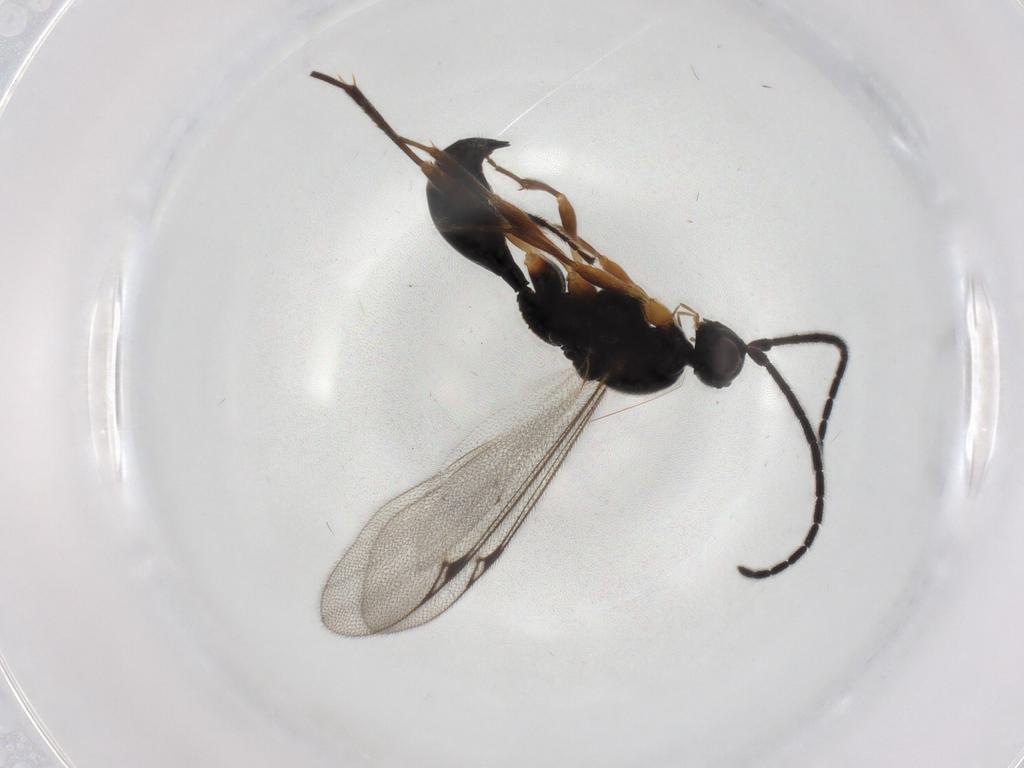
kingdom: Animalia
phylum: Arthropoda
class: Insecta
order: Hymenoptera
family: Proctotrupidae
